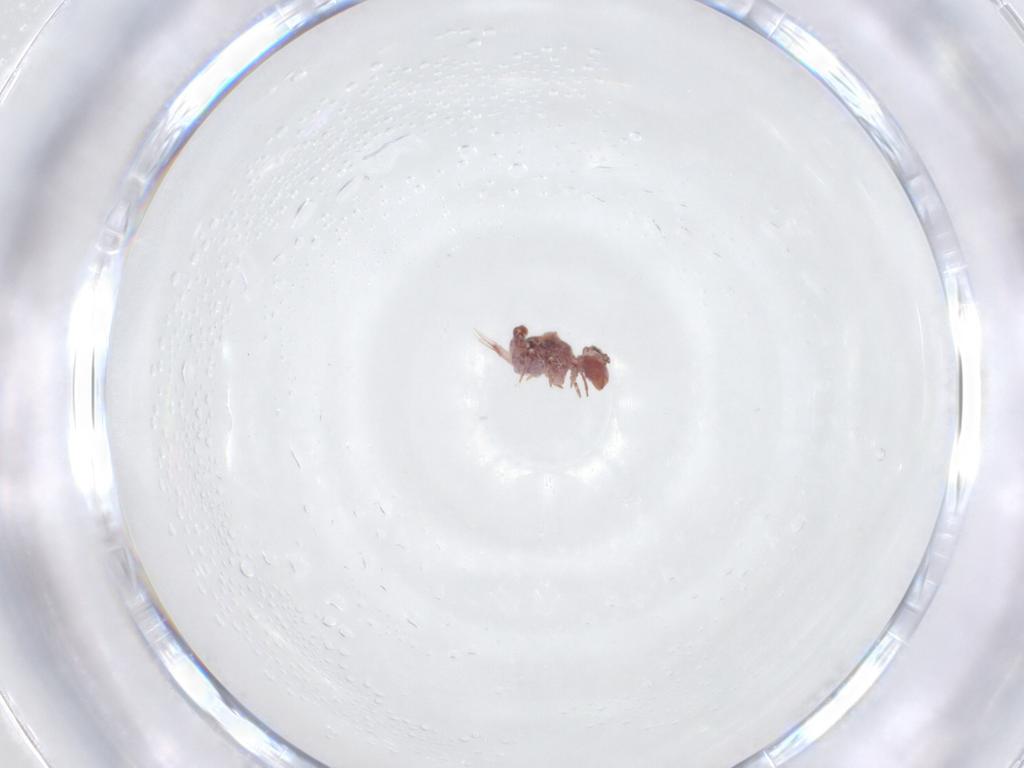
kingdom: Animalia
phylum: Arthropoda
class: Collembola
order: Symphypleona
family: Bourletiellidae
